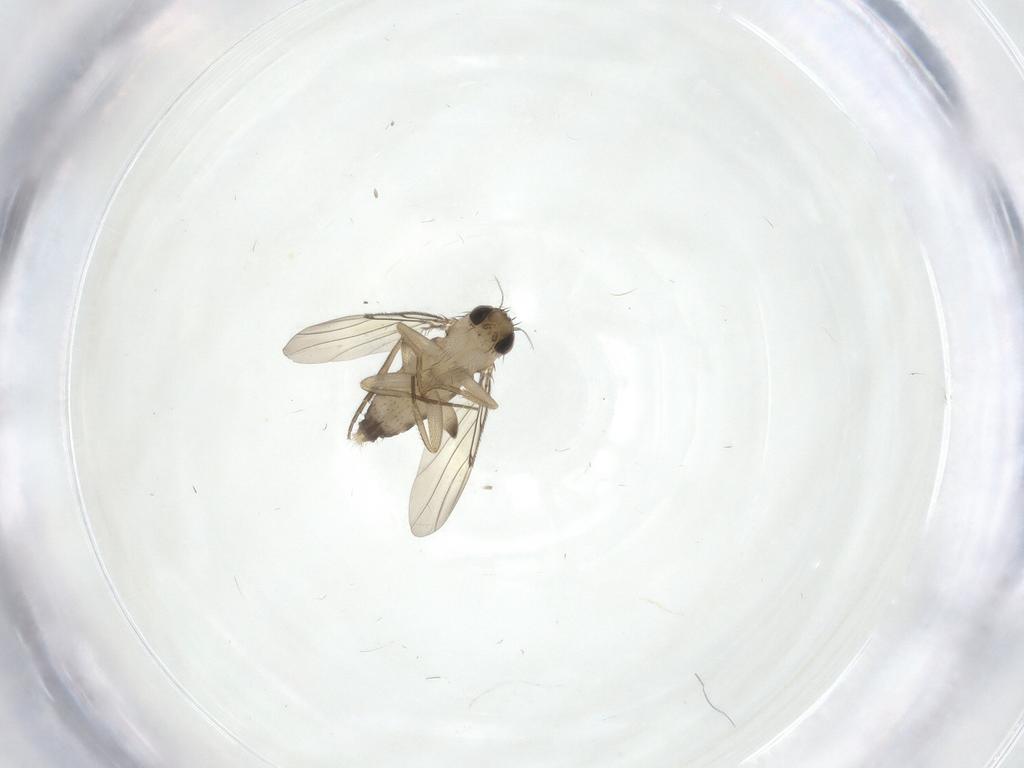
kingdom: Animalia
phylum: Arthropoda
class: Insecta
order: Diptera
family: Phoridae
